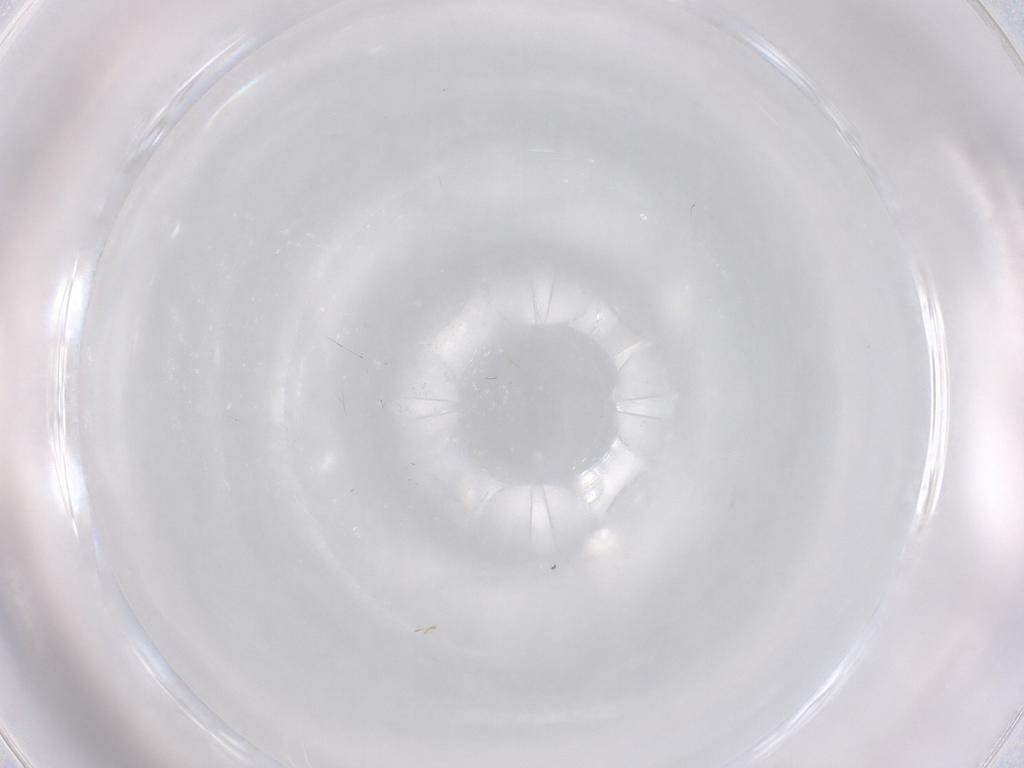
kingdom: Animalia
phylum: Arthropoda
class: Insecta
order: Diptera
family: Chironomidae
